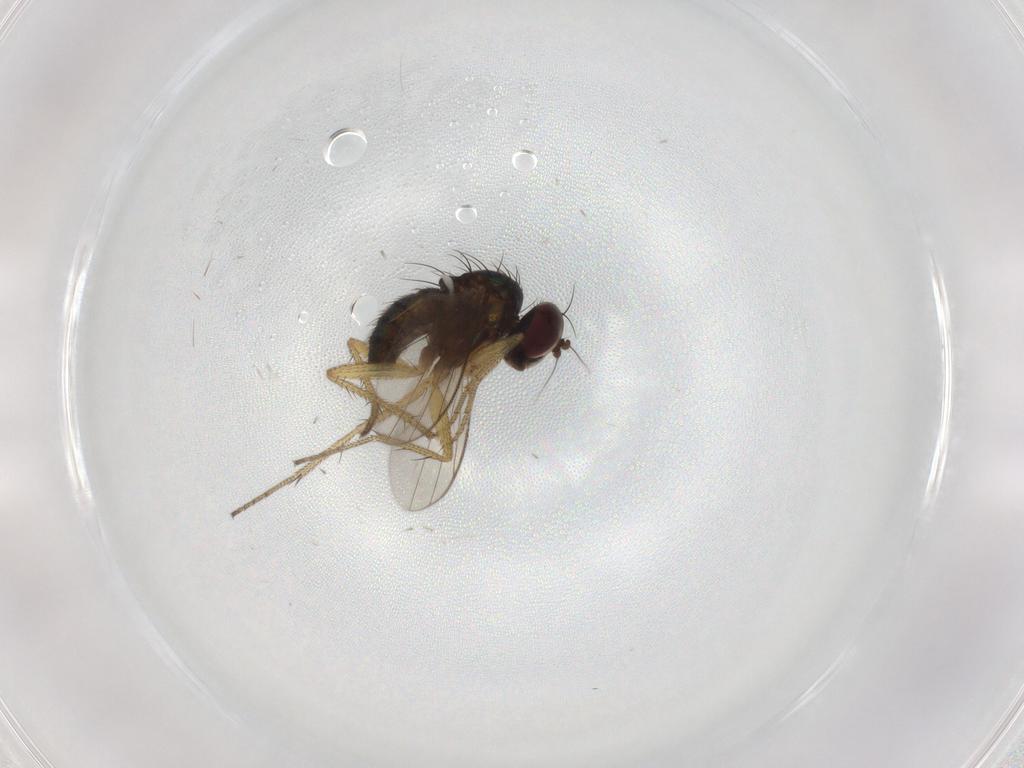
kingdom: Animalia
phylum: Arthropoda
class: Insecta
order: Diptera
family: Dolichopodidae
